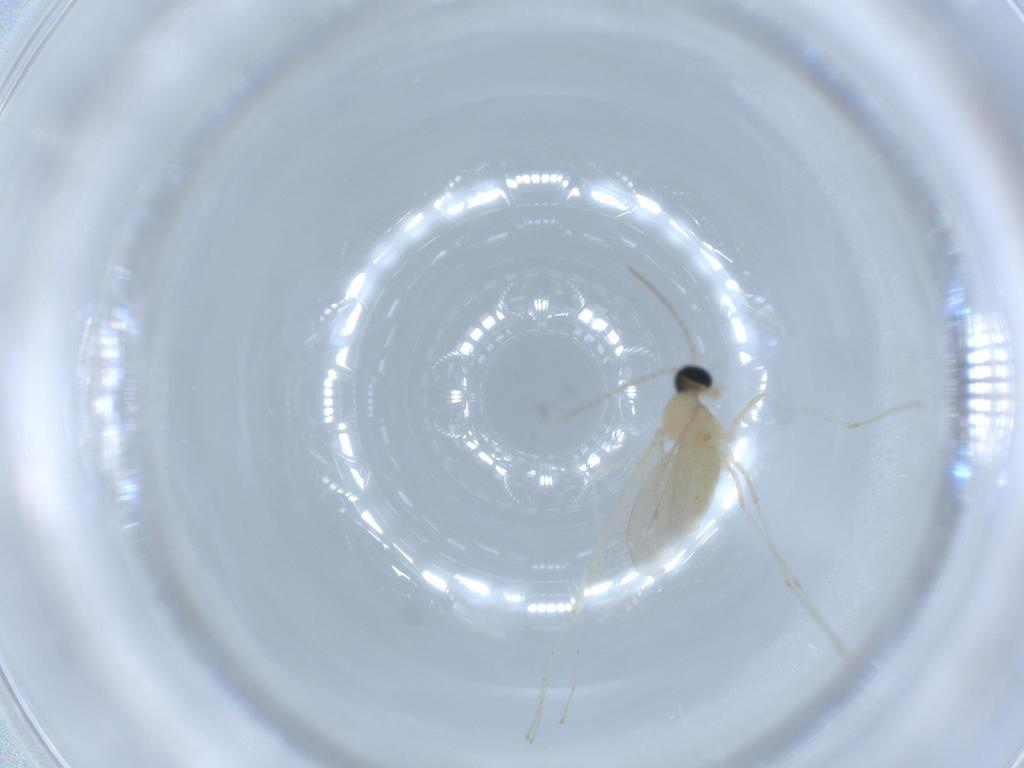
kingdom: Animalia
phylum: Arthropoda
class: Insecta
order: Diptera
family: Cecidomyiidae
